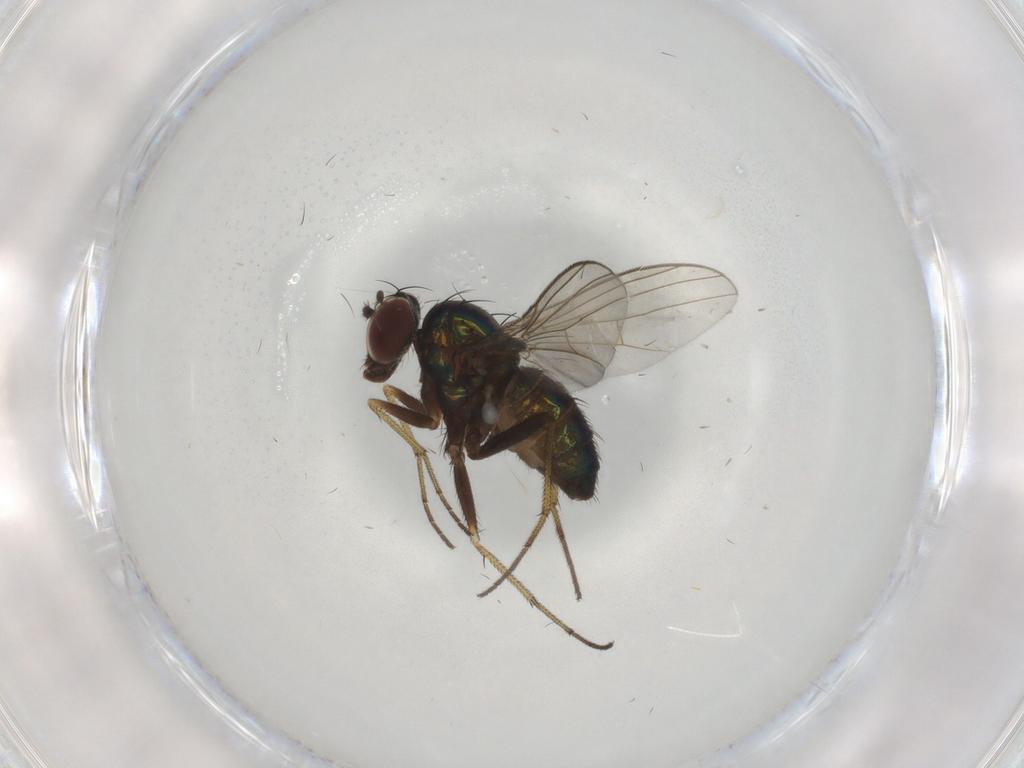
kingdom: Animalia
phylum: Arthropoda
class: Insecta
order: Diptera
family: Dolichopodidae
